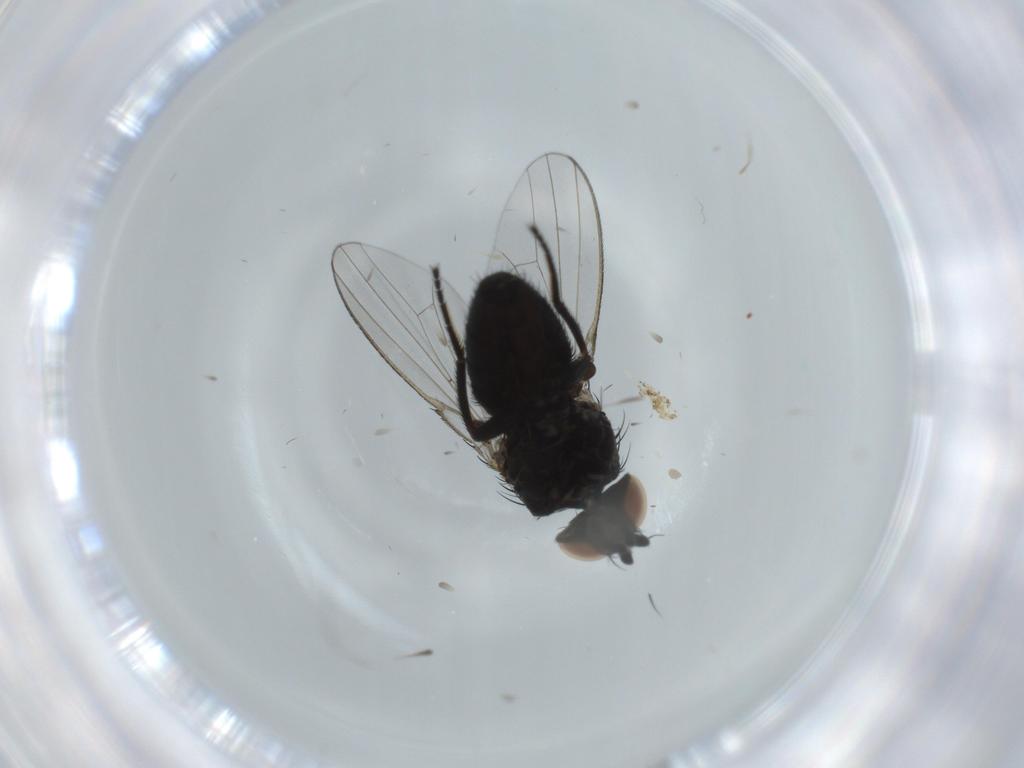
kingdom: Animalia
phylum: Arthropoda
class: Insecta
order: Diptera
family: Milichiidae
